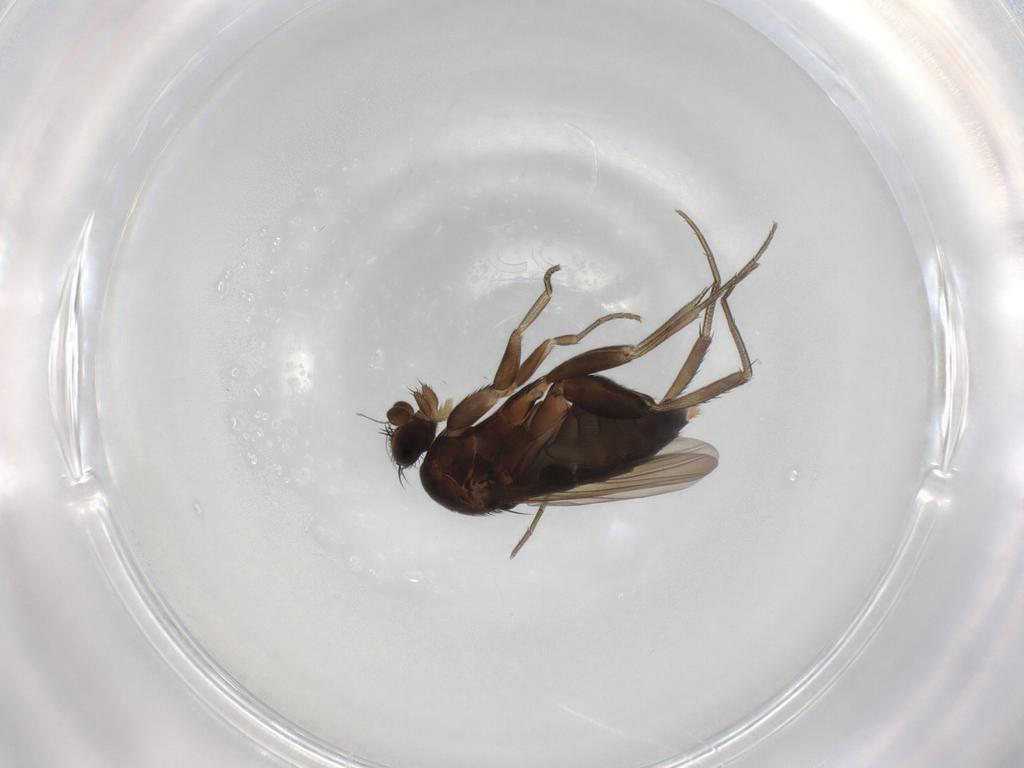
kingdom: Animalia
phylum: Arthropoda
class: Insecta
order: Diptera
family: Phoridae
